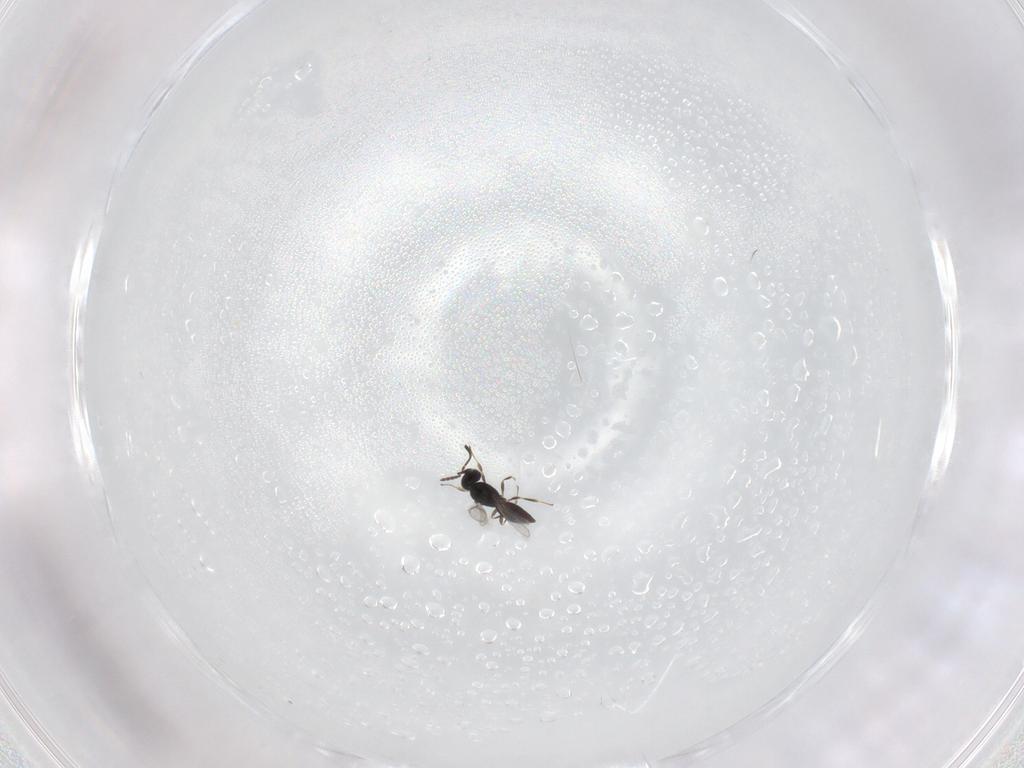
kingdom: Animalia
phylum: Arthropoda
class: Insecta
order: Hymenoptera
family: Scelionidae
